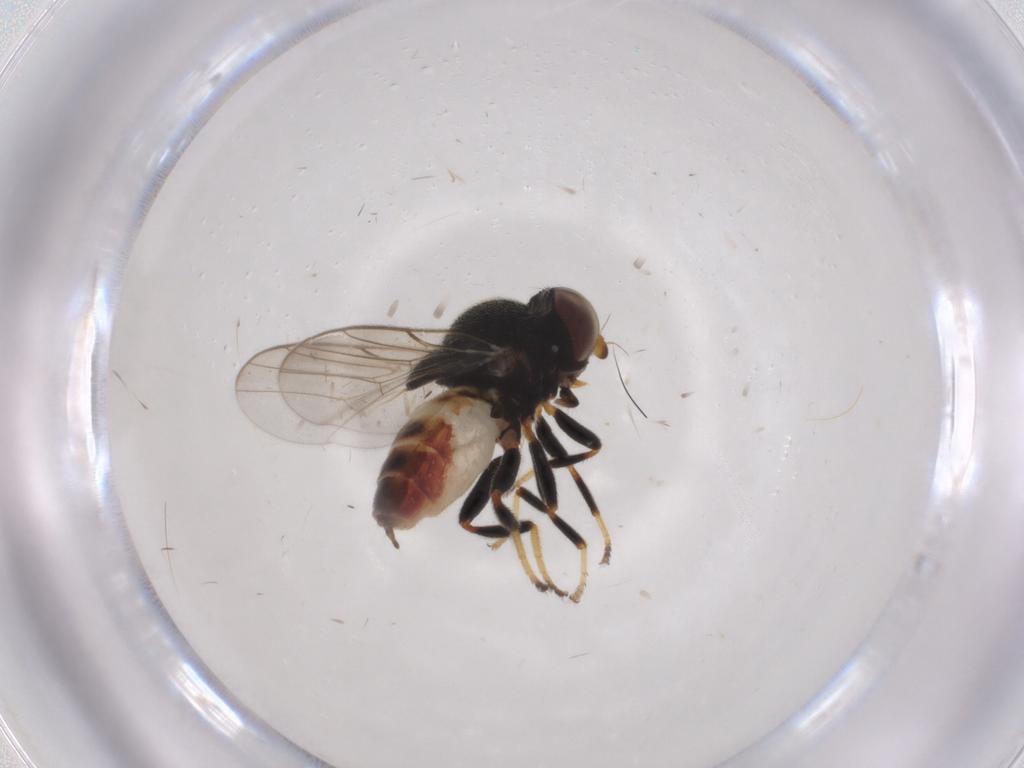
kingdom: Animalia
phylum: Arthropoda
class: Insecta
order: Diptera
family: Chloropidae
